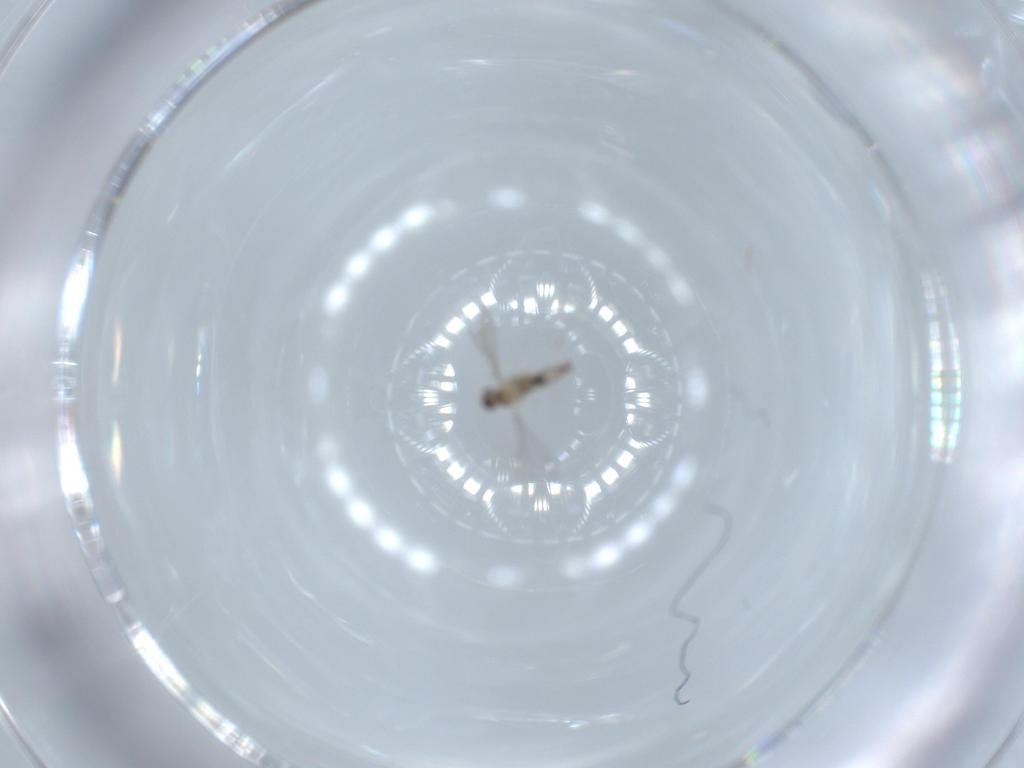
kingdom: Animalia
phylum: Arthropoda
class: Insecta
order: Diptera
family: Cecidomyiidae
